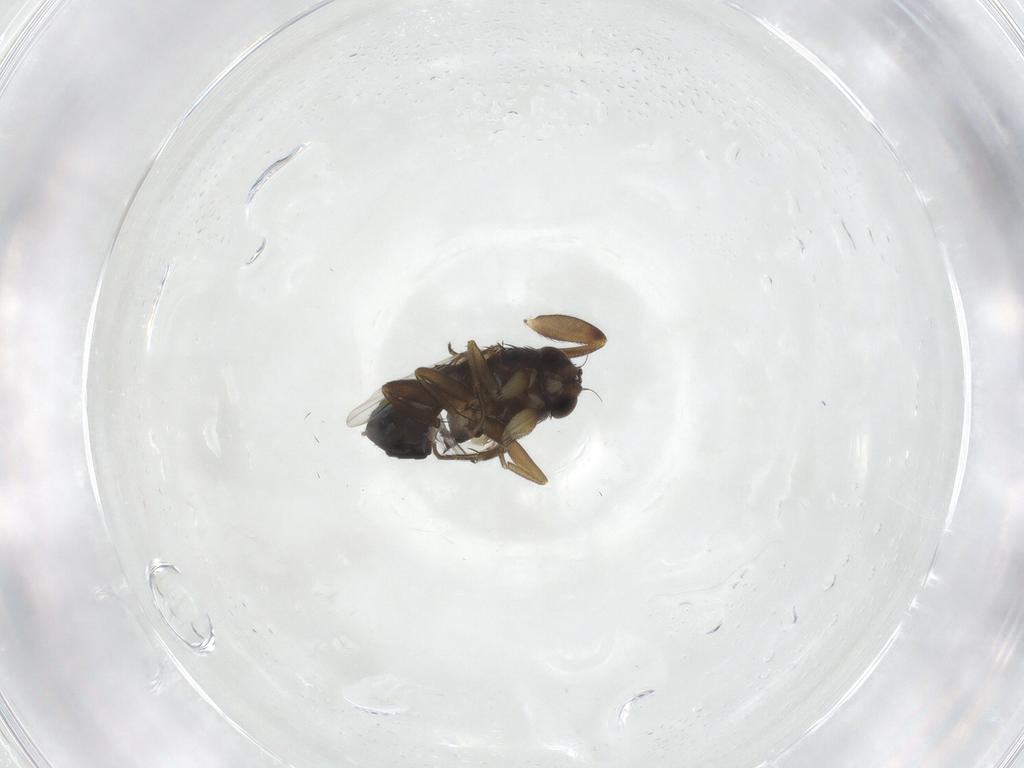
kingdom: Animalia
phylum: Arthropoda
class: Insecta
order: Diptera
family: Phoridae
